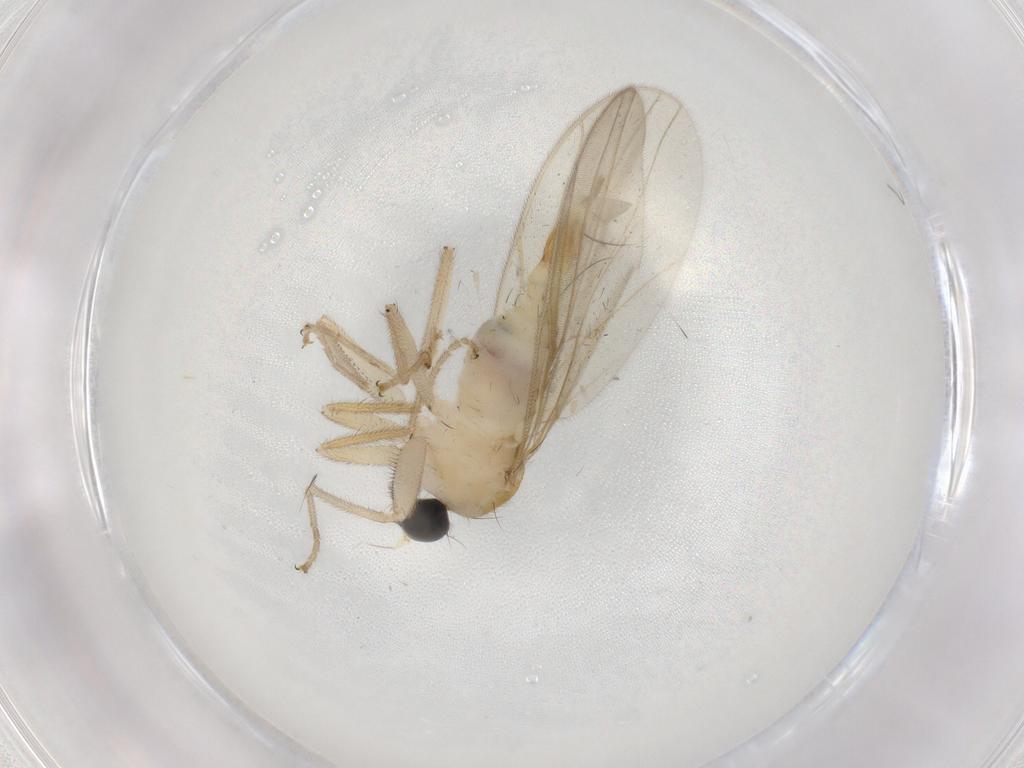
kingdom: Animalia
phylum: Arthropoda
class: Insecta
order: Diptera
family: Hybotidae
